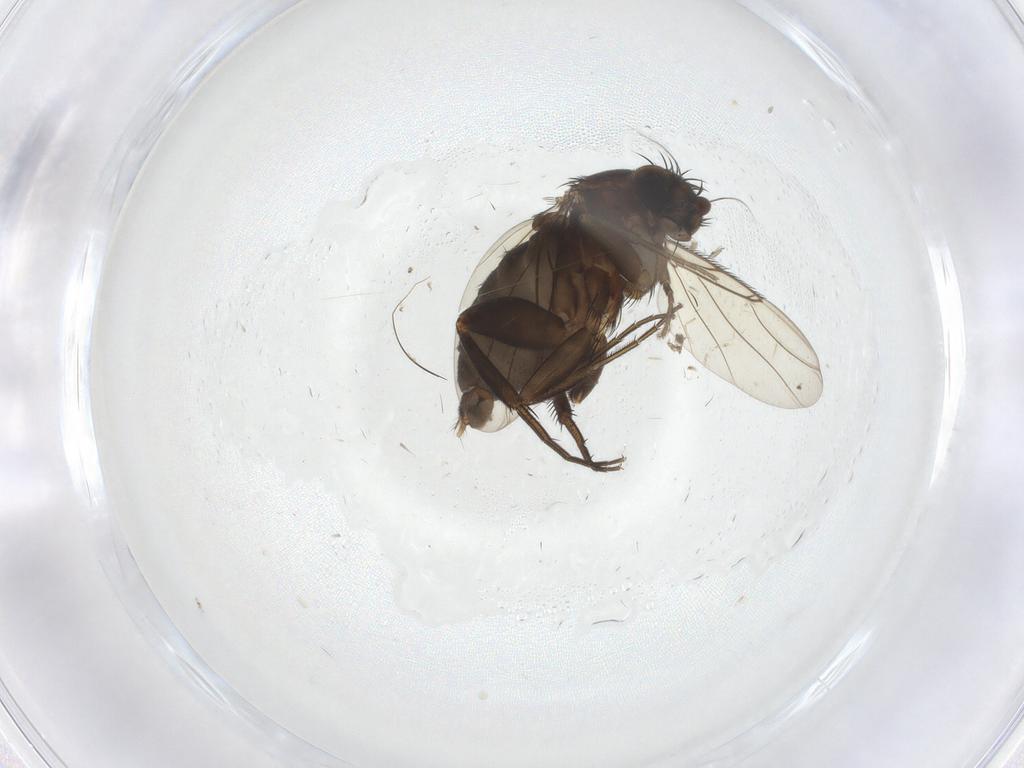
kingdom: Animalia
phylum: Arthropoda
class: Insecta
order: Diptera
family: Phoridae
